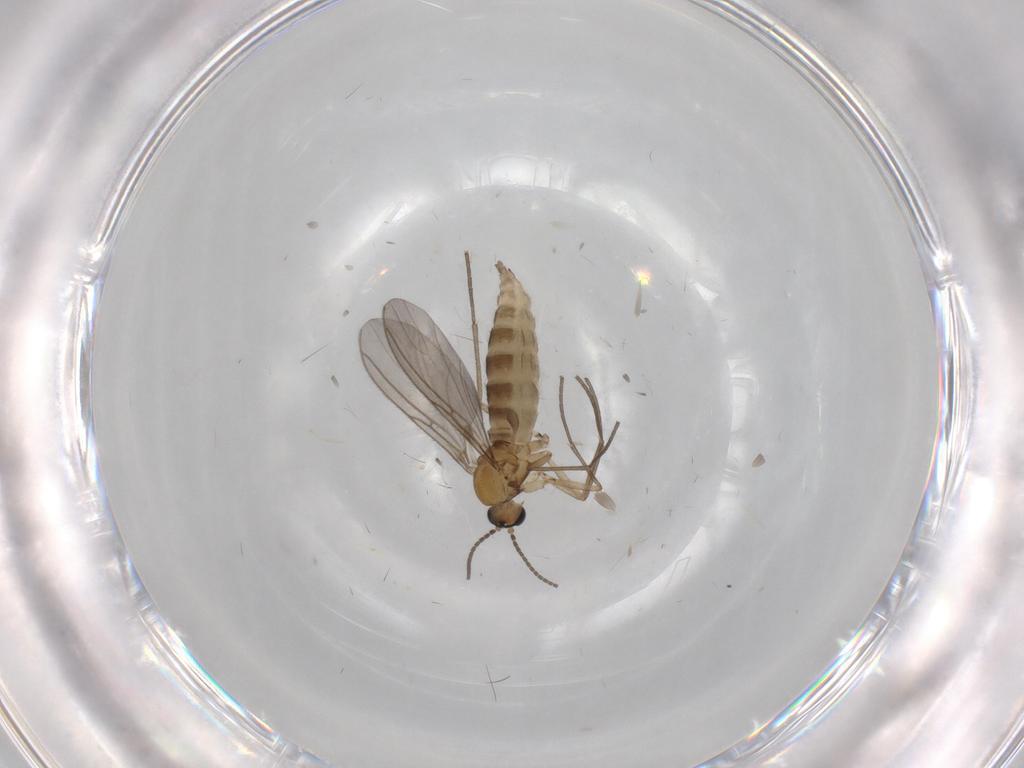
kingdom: Animalia
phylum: Arthropoda
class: Insecta
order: Diptera
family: Sciaridae
